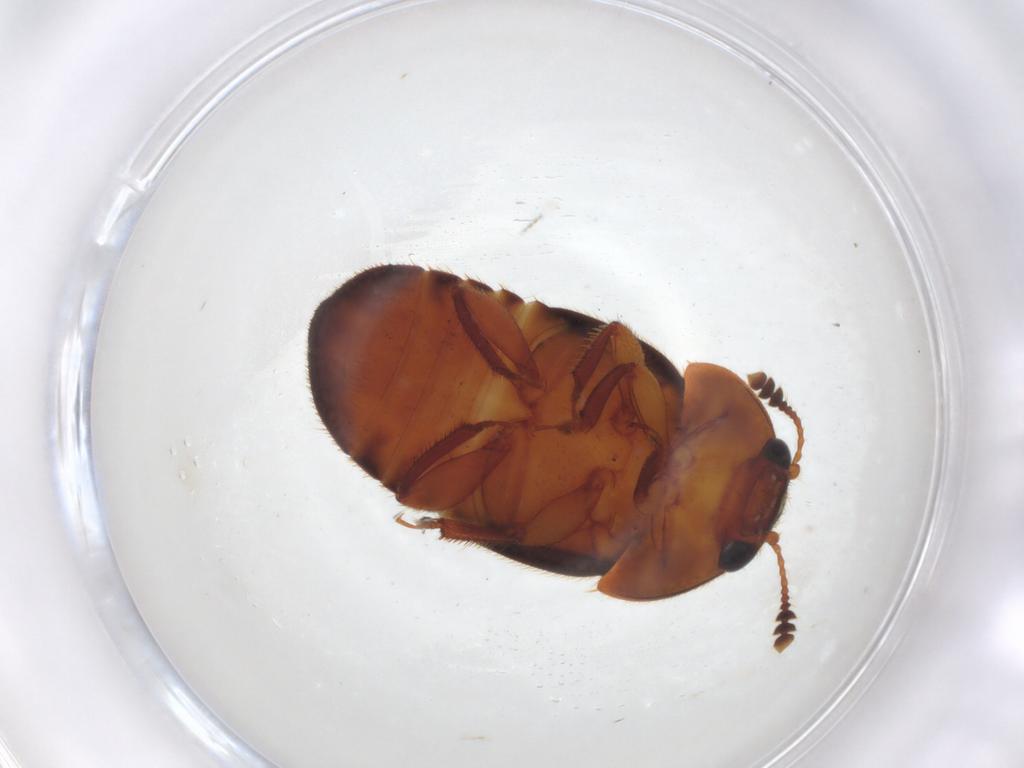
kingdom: Animalia
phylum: Arthropoda
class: Insecta
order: Coleoptera
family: Nitidulidae
